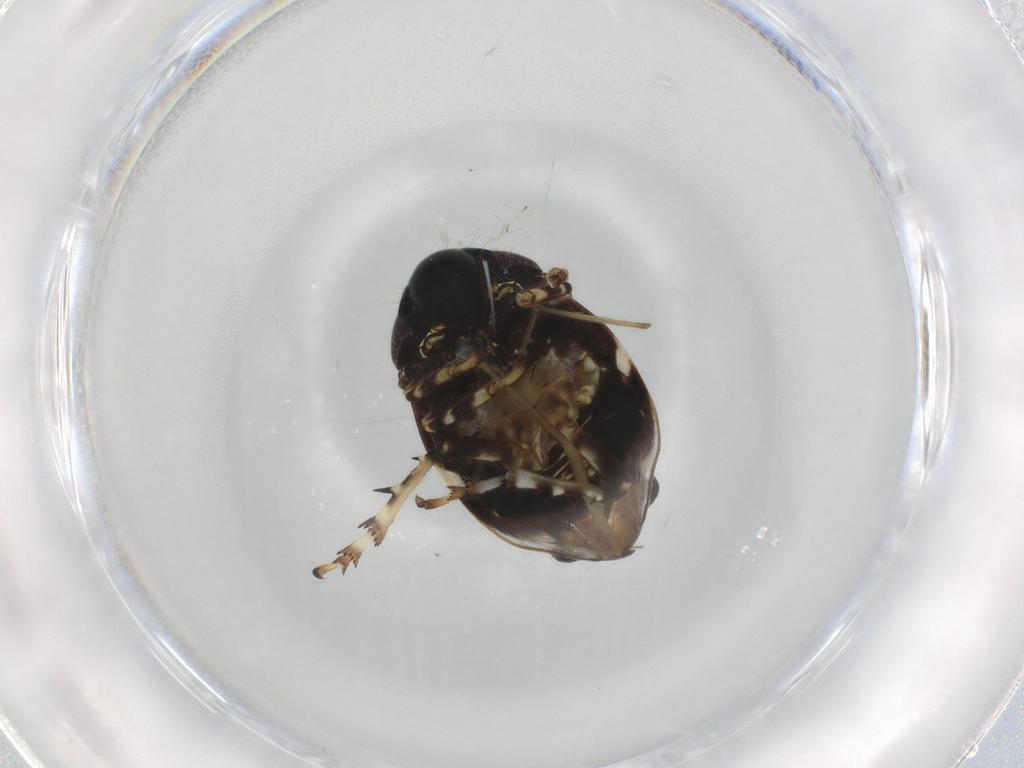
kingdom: Animalia
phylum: Arthropoda
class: Insecta
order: Hemiptera
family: Clastopteridae
